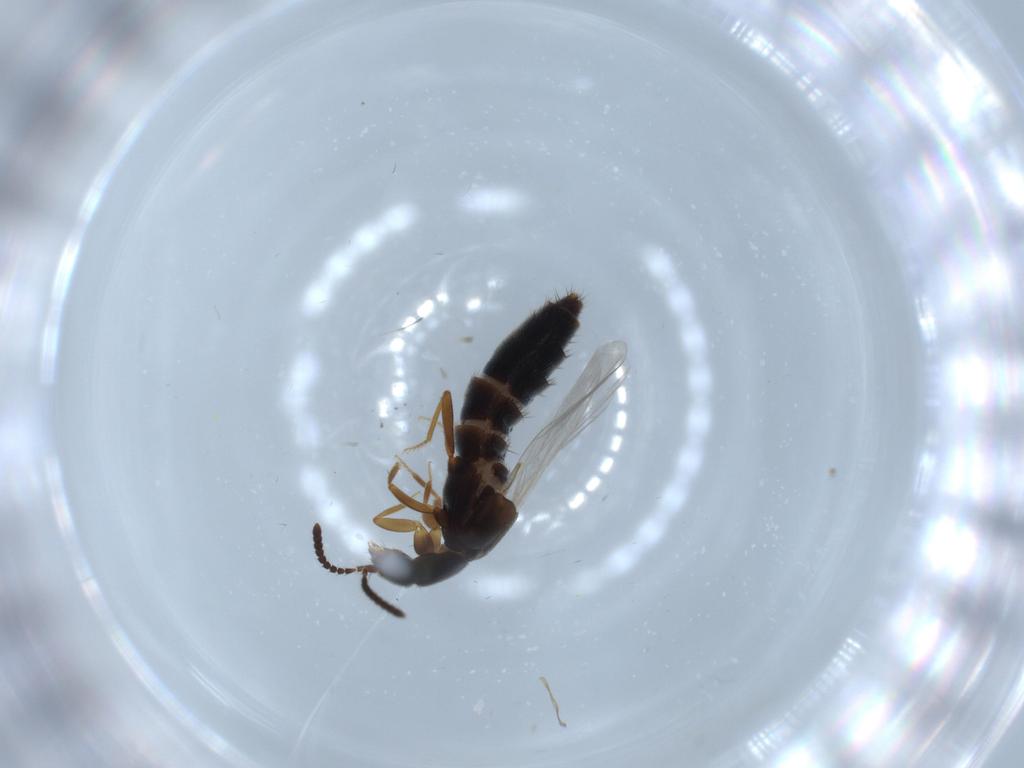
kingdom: Animalia
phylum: Arthropoda
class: Insecta
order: Coleoptera
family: Staphylinidae
